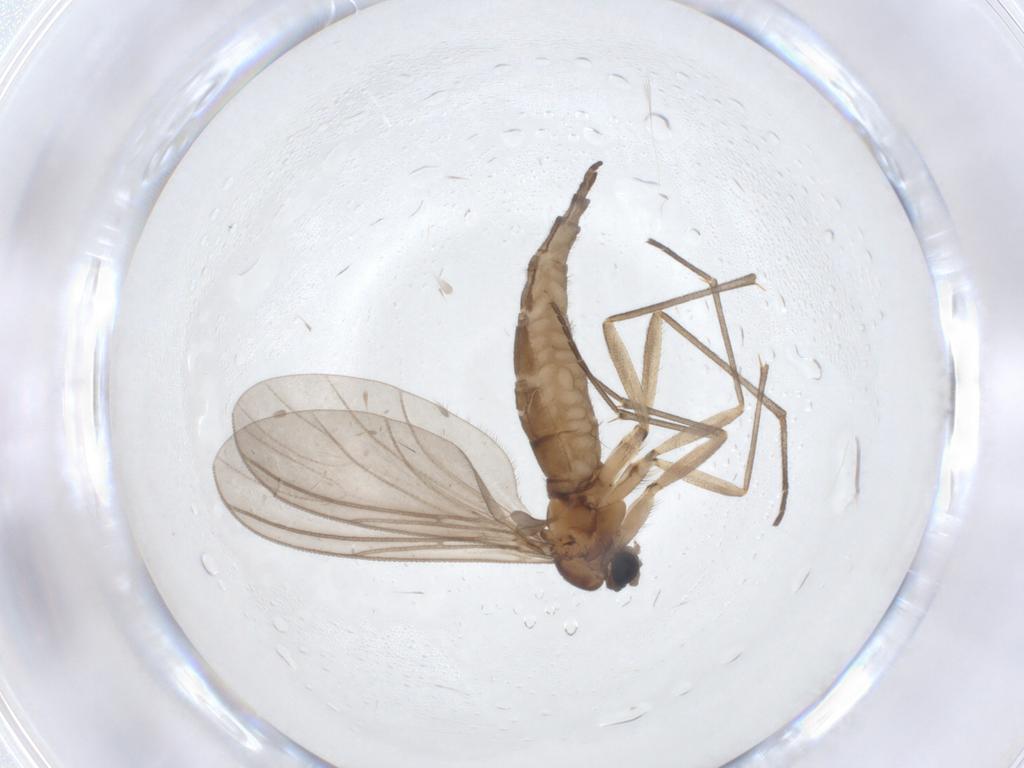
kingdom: Animalia
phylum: Arthropoda
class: Insecta
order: Diptera
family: Sciaridae
